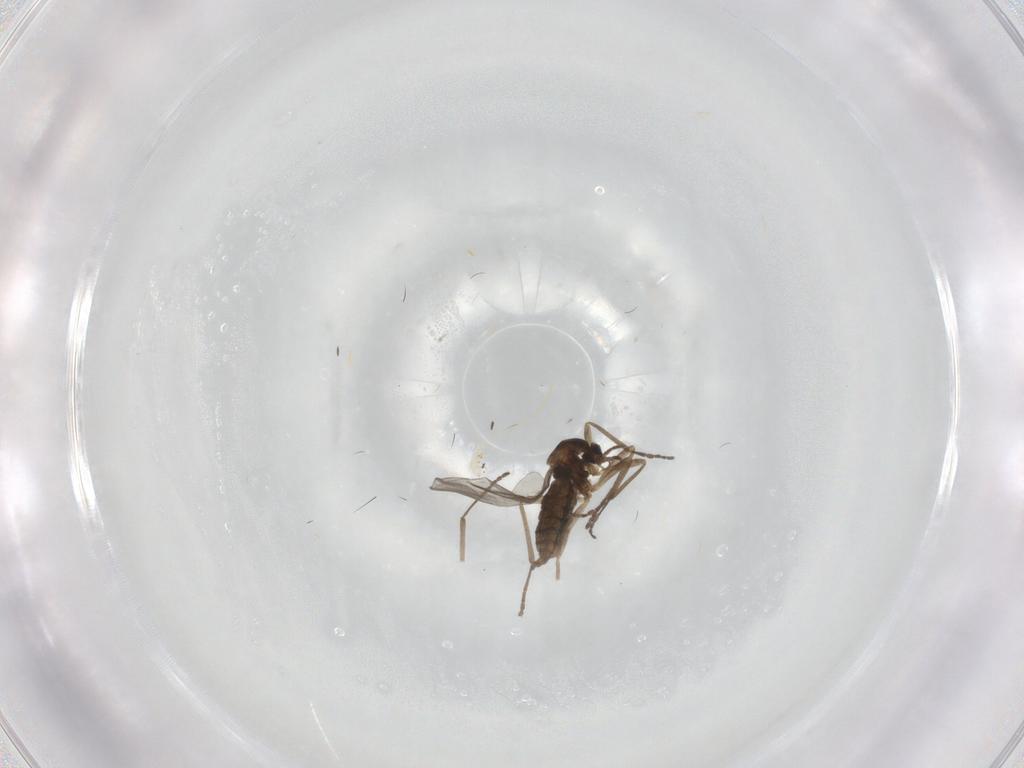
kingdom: Animalia
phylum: Arthropoda
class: Insecta
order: Diptera
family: Cecidomyiidae
